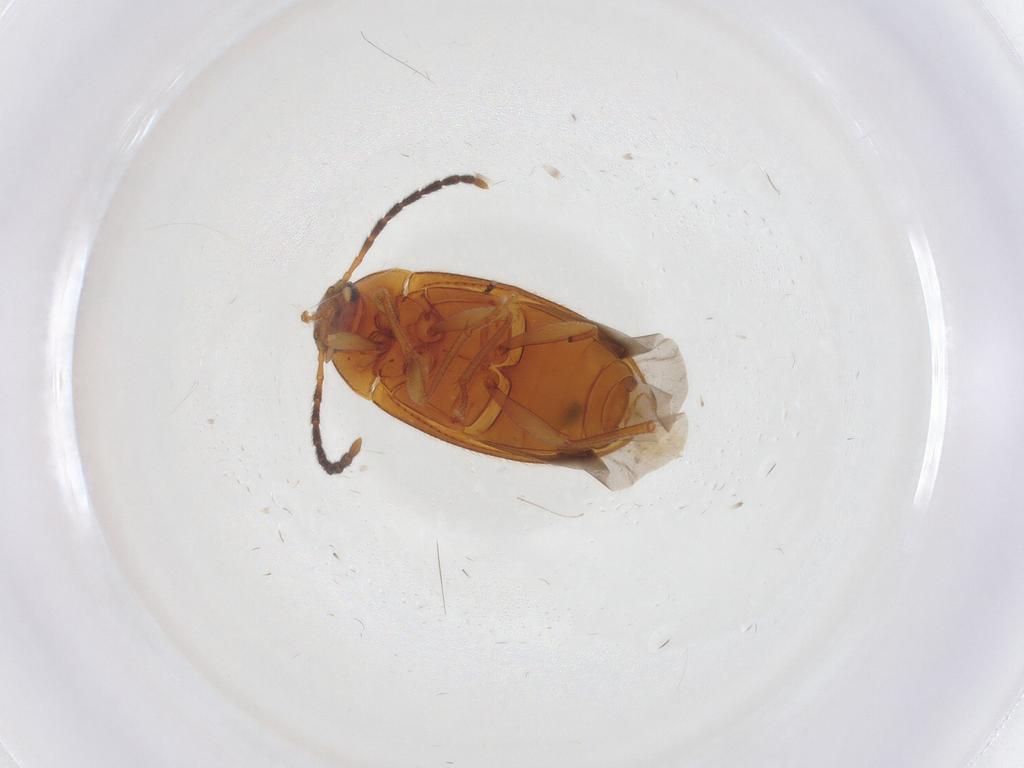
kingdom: Animalia
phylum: Arthropoda
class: Insecta
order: Coleoptera
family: Tenebrionidae
